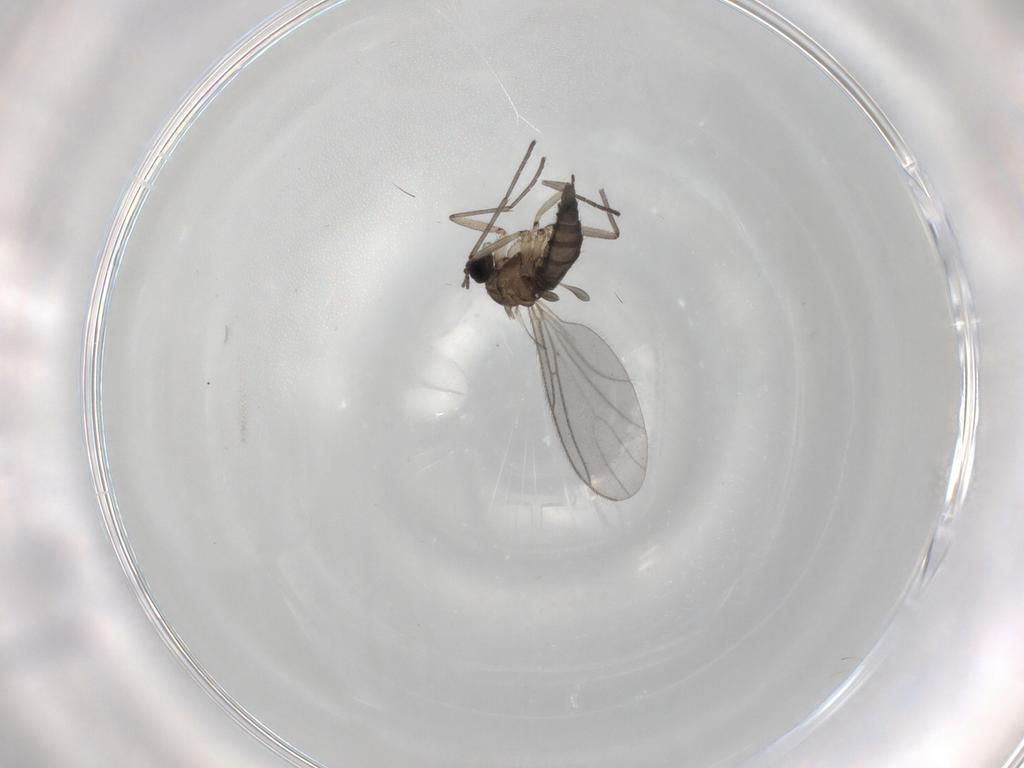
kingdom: Animalia
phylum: Arthropoda
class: Insecta
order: Diptera
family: Sciaridae
